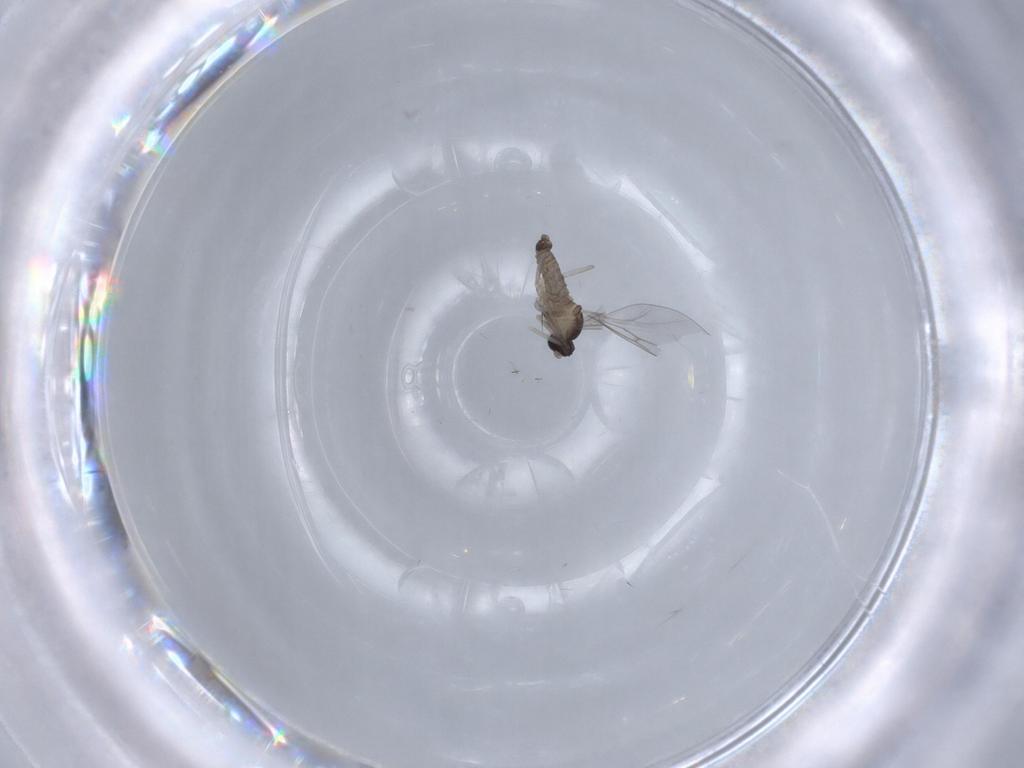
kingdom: Animalia
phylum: Arthropoda
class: Insecta
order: Diptera
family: Cecidomyiidae
